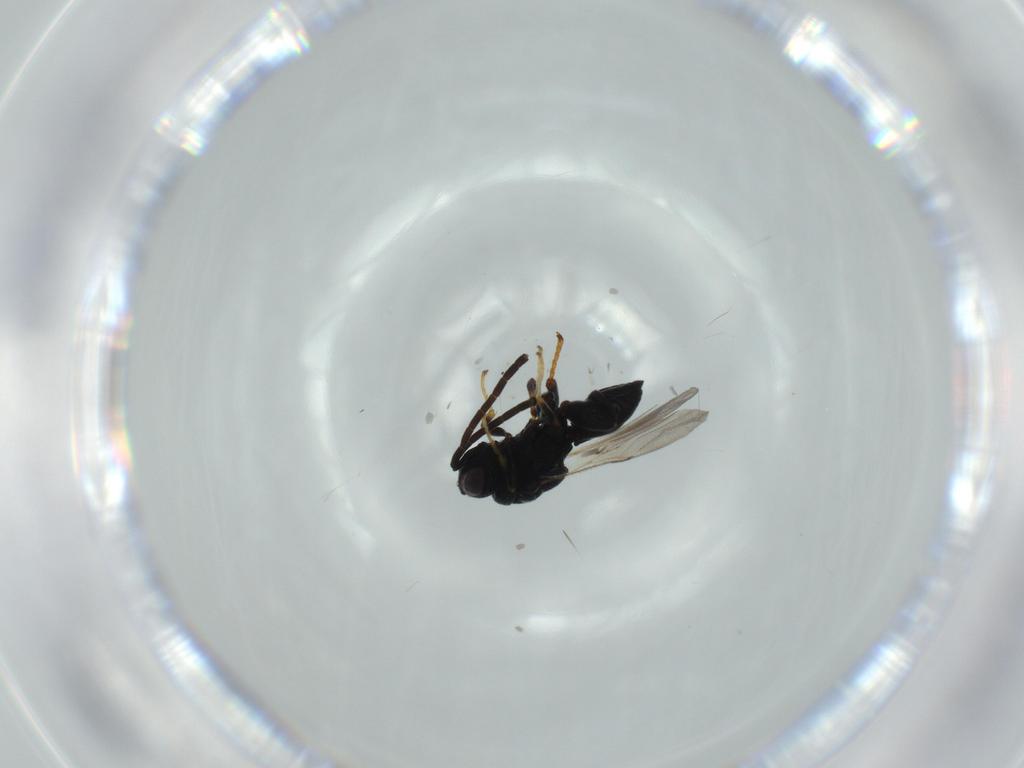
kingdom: Animalia
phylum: Arthropoda
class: Insecta
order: Hymenoptera
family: Scelionidae
